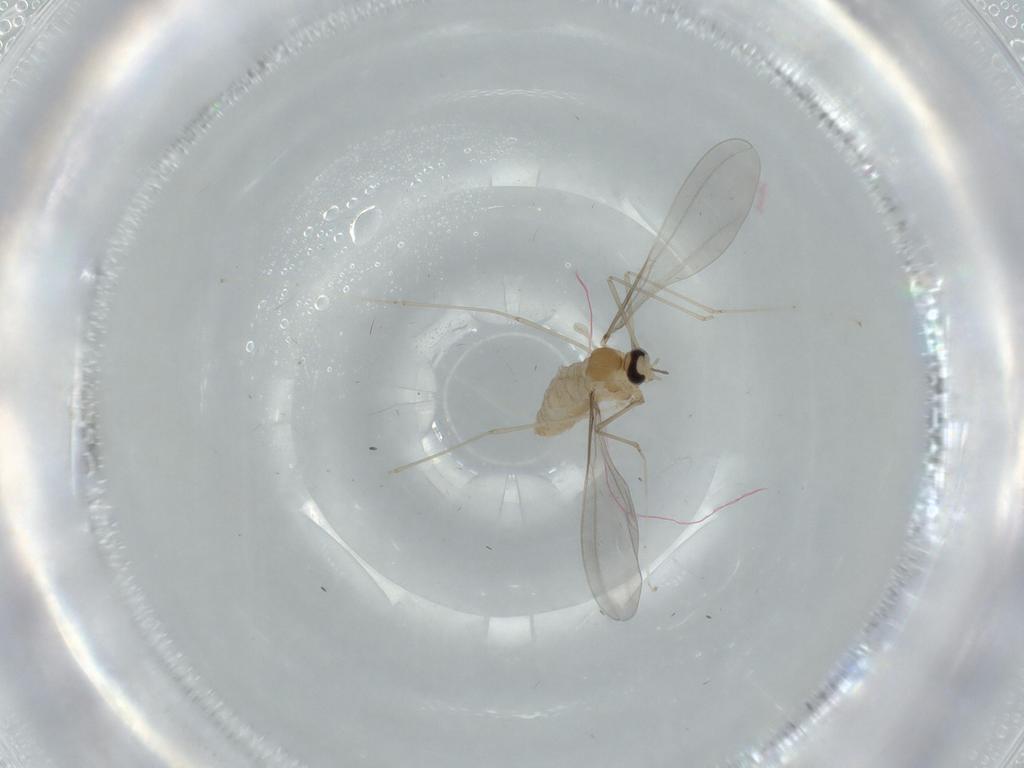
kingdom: Animalia
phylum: Arthropoda
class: Insecta
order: Diptera
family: Cecidomyiidae
